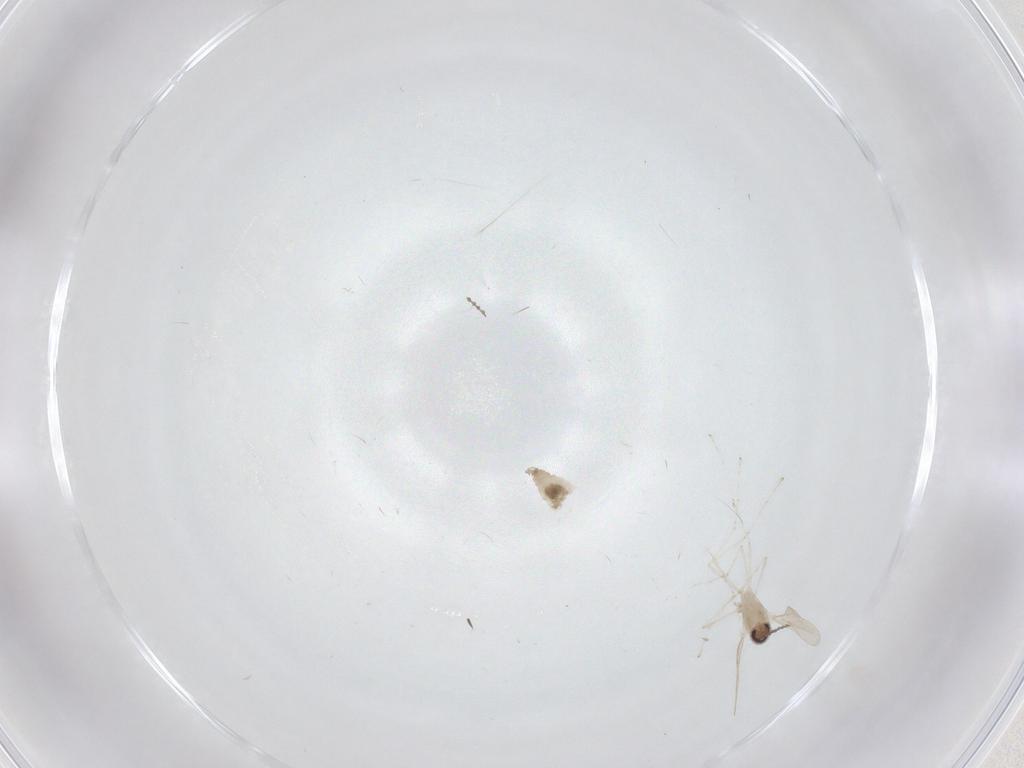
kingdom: Animalia
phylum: Arthropoda
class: Insecta
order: Diptera
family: Cecidomyiidae
